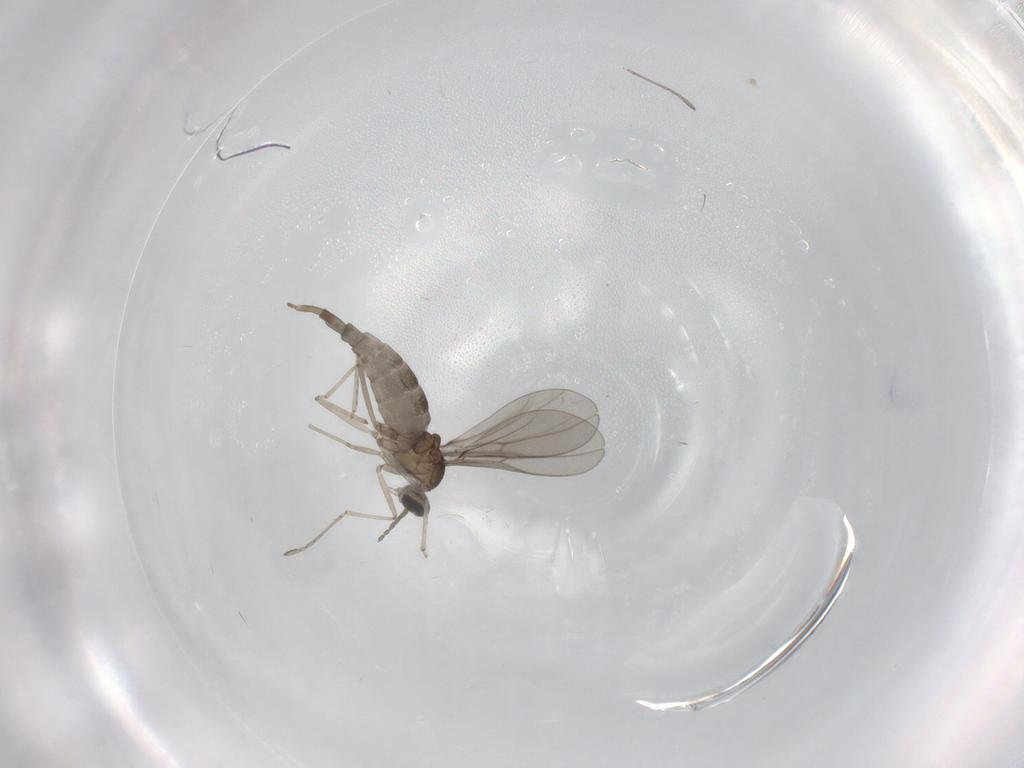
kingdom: Animalia
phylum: Arthropoda
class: Insecta
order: Diptera
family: Cecidomyiidae
